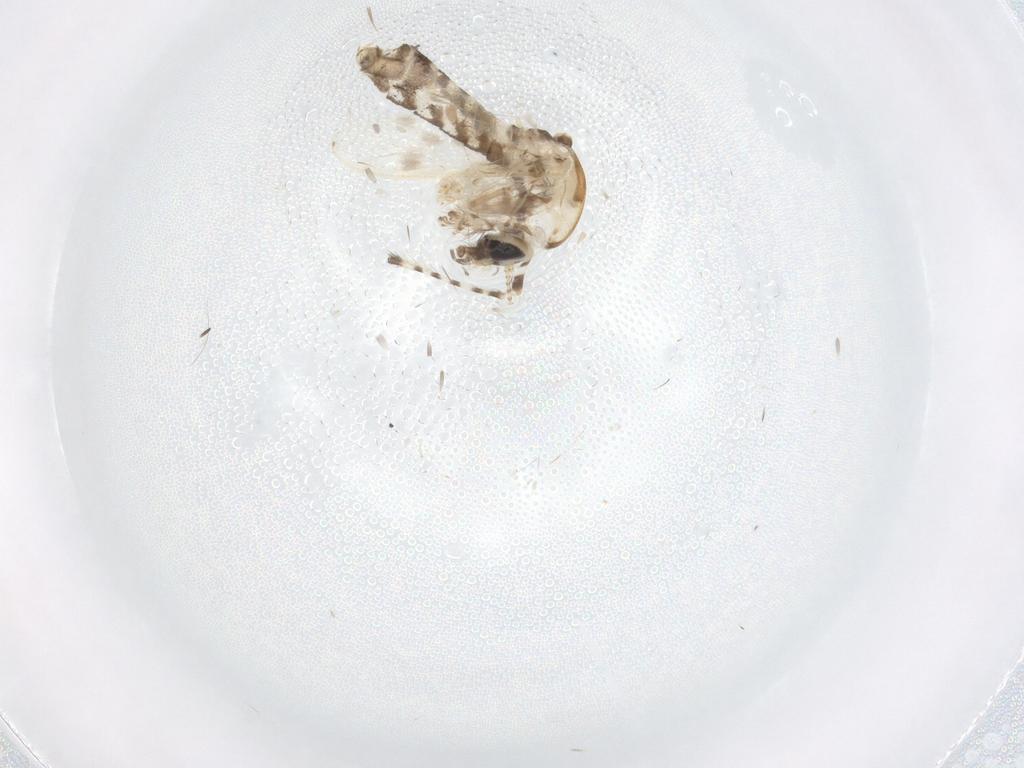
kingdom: Animalia
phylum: Arthropoda
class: Insecta
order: Diptera
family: Corethrellidae
